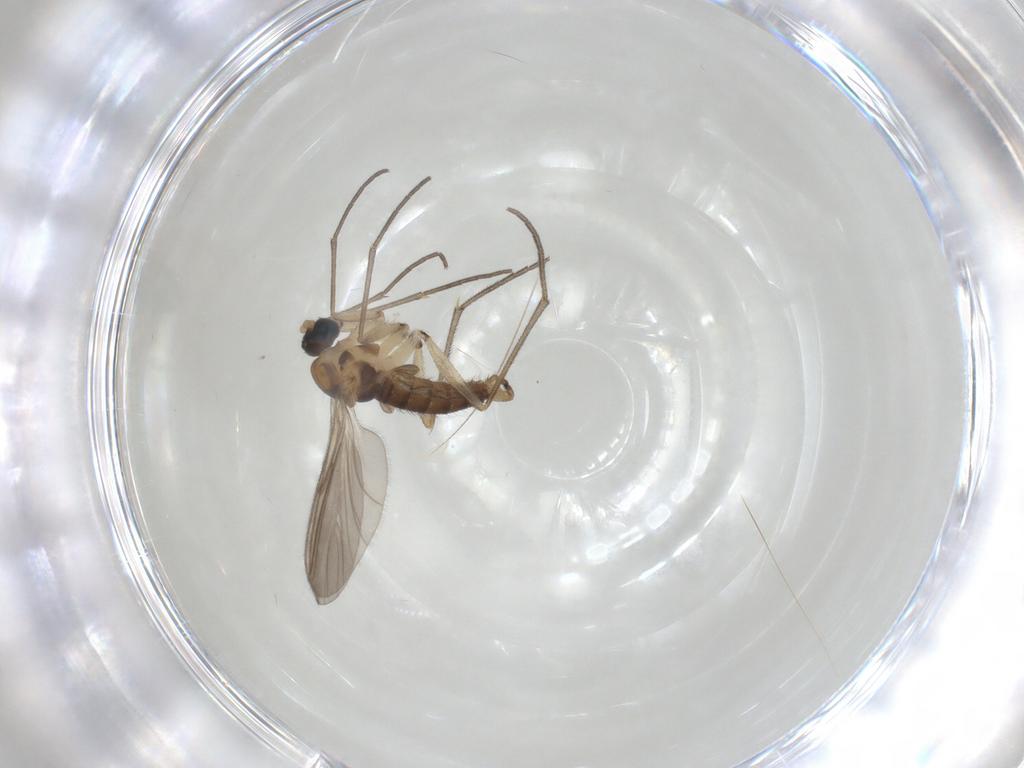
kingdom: Animalia
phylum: Arthropoda
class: Insecta
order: Diptera
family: Sciaridae
